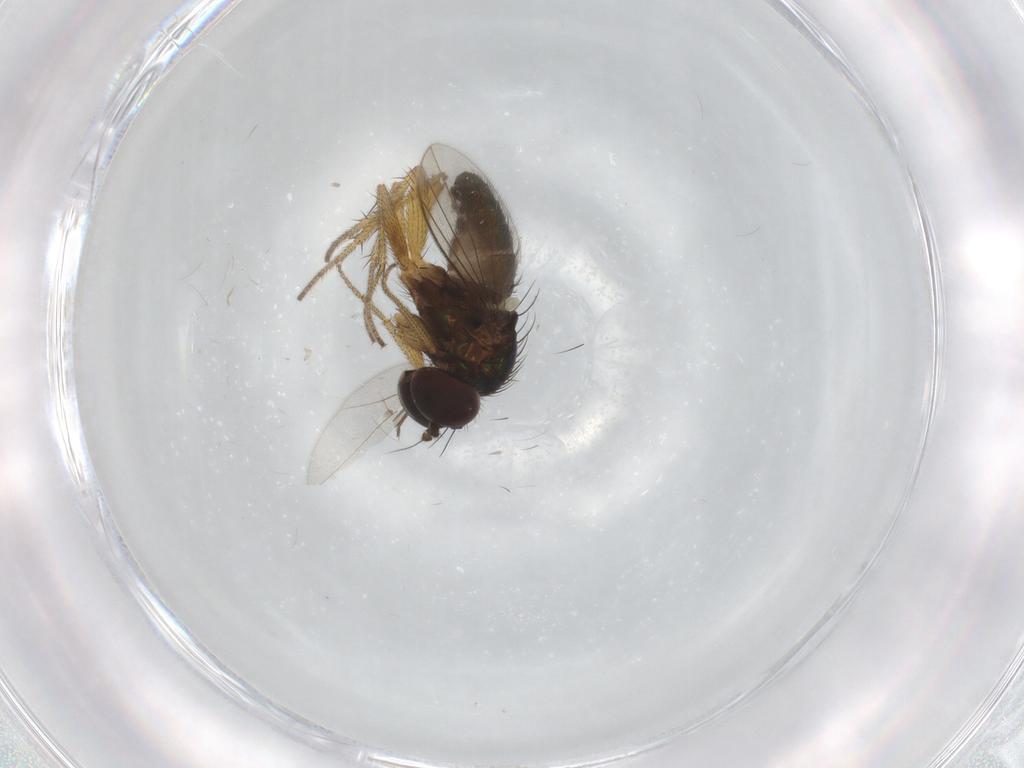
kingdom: Animalia
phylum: Arthropoda
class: Insecta
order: Diptera
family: Dolichopodidae
